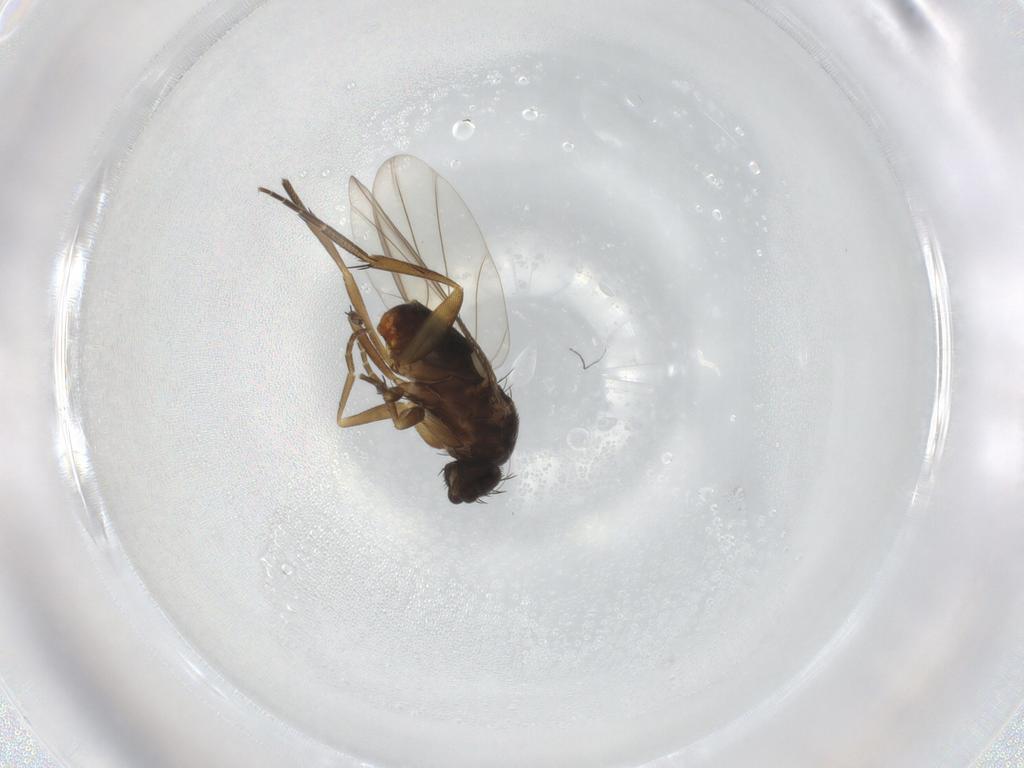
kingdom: Animalia
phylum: Arthropoda
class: Insecta
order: Diptera
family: Phoridae
